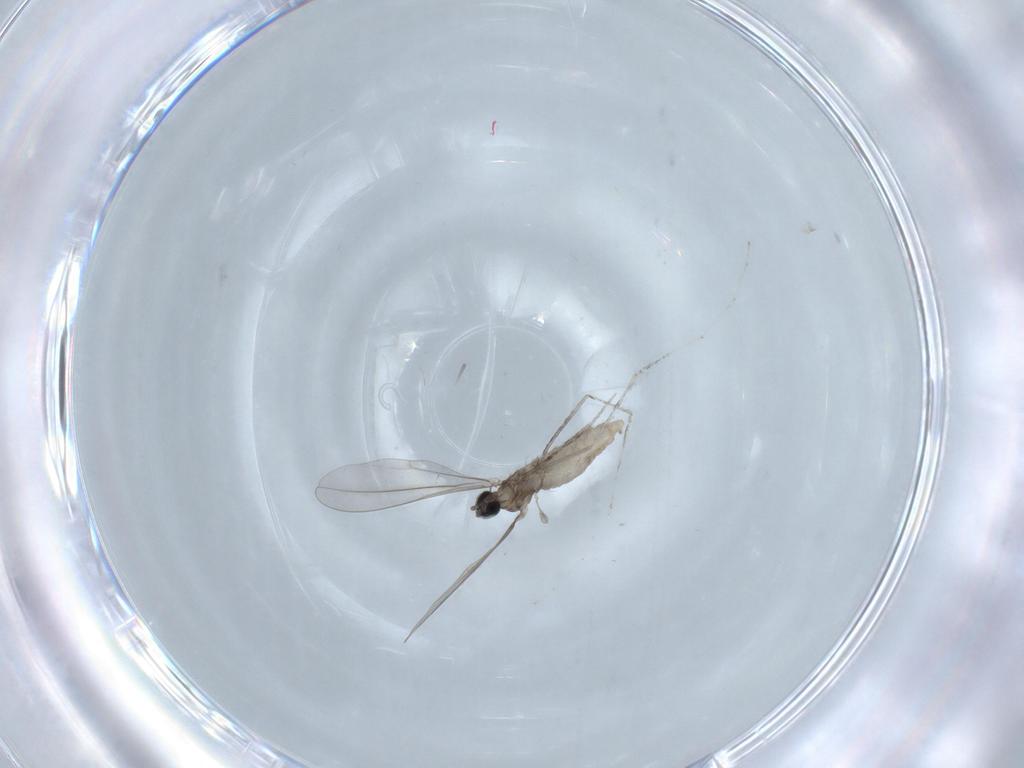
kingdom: Animalia
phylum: Arthropoda
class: Insecta
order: Diptera
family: Cecidomyiidae
